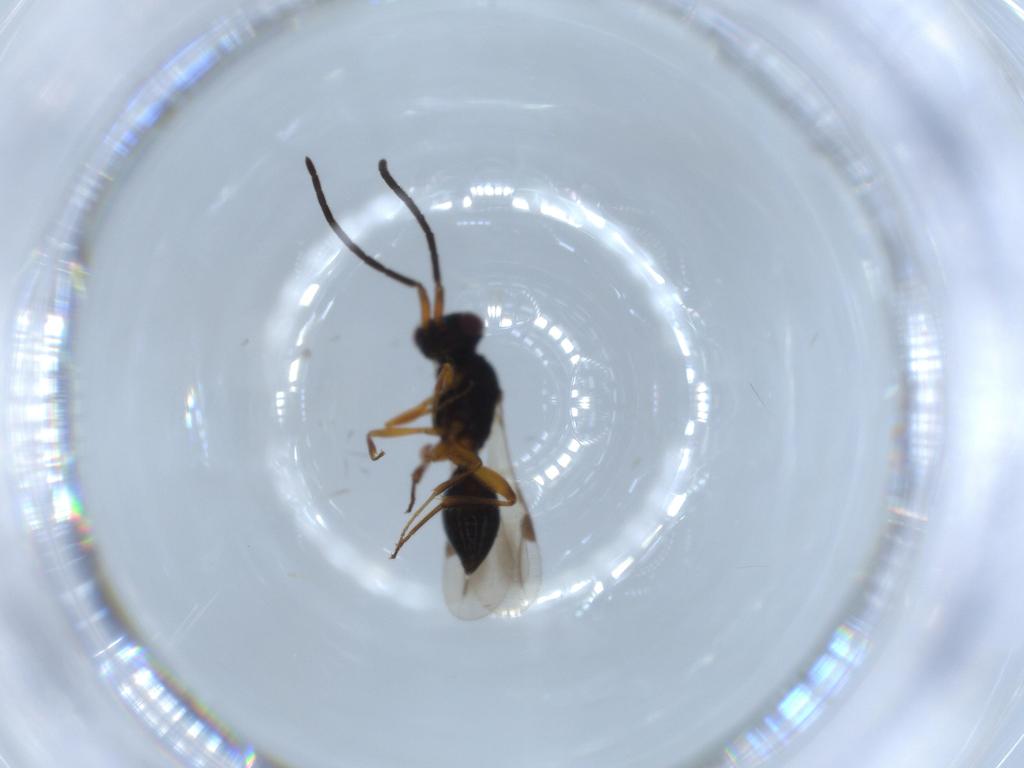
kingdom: Animalia
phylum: Arthropoda
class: Insecta
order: Hymenoptera
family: Megaspilidae
